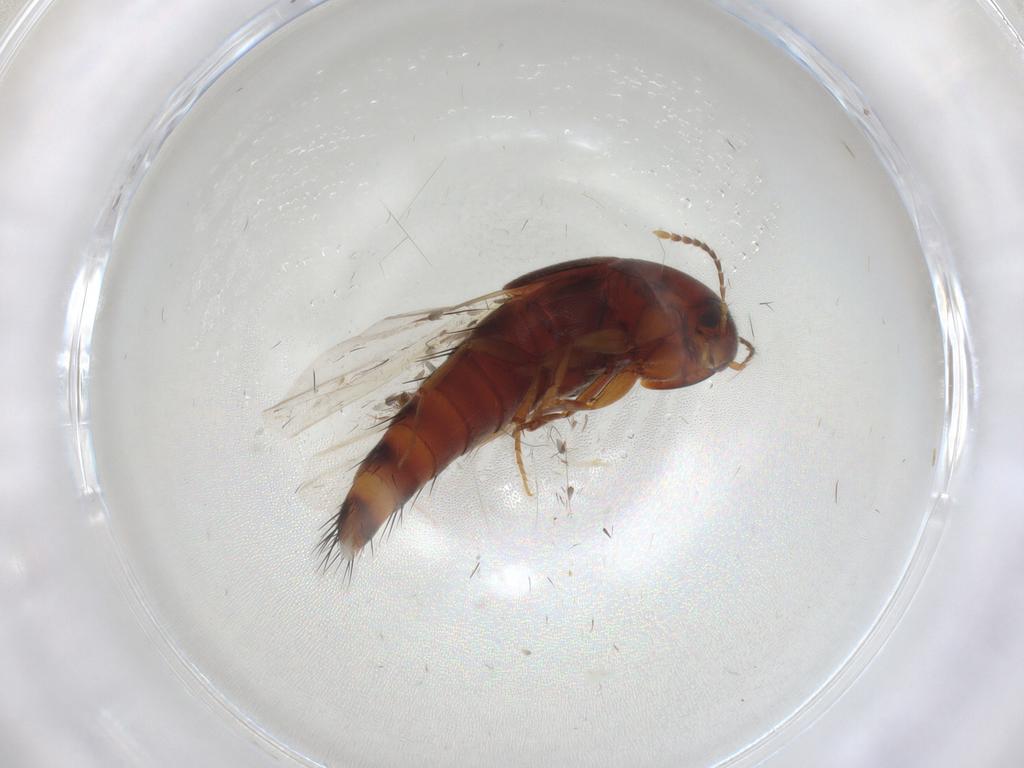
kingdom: Animalia
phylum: Arthropoda
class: Insecta
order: Coleoptera
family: Staphylinidae
